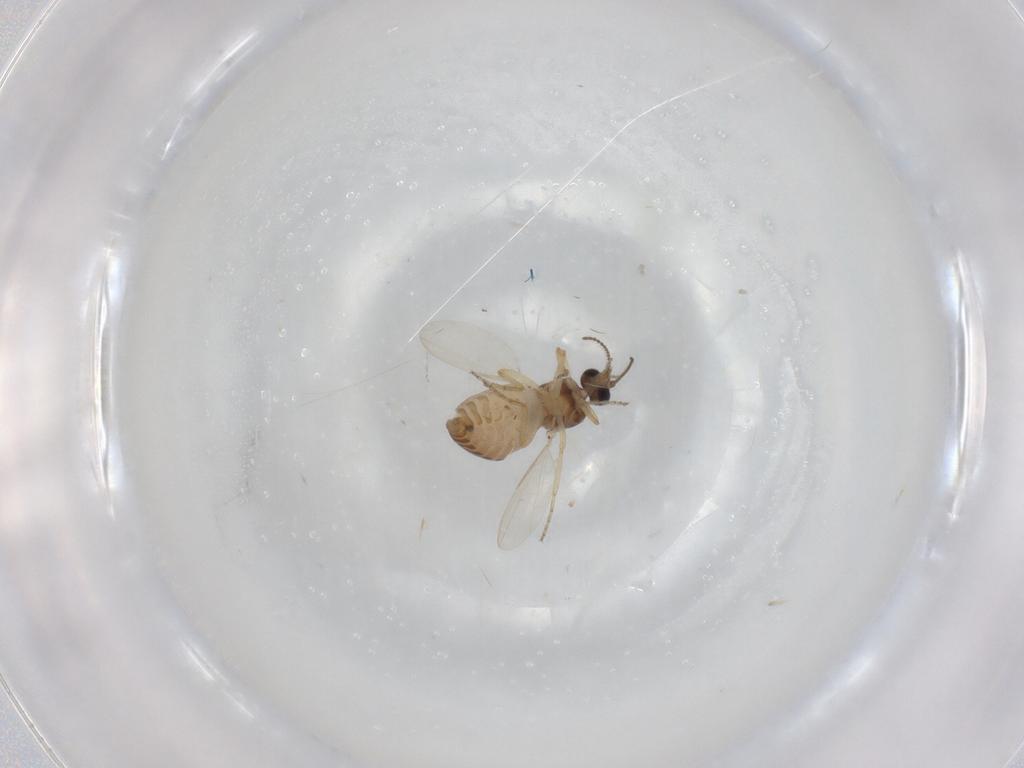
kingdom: Animalia
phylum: Arthropoda
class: Insecta
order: Diptera
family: Ceratopogonidae
